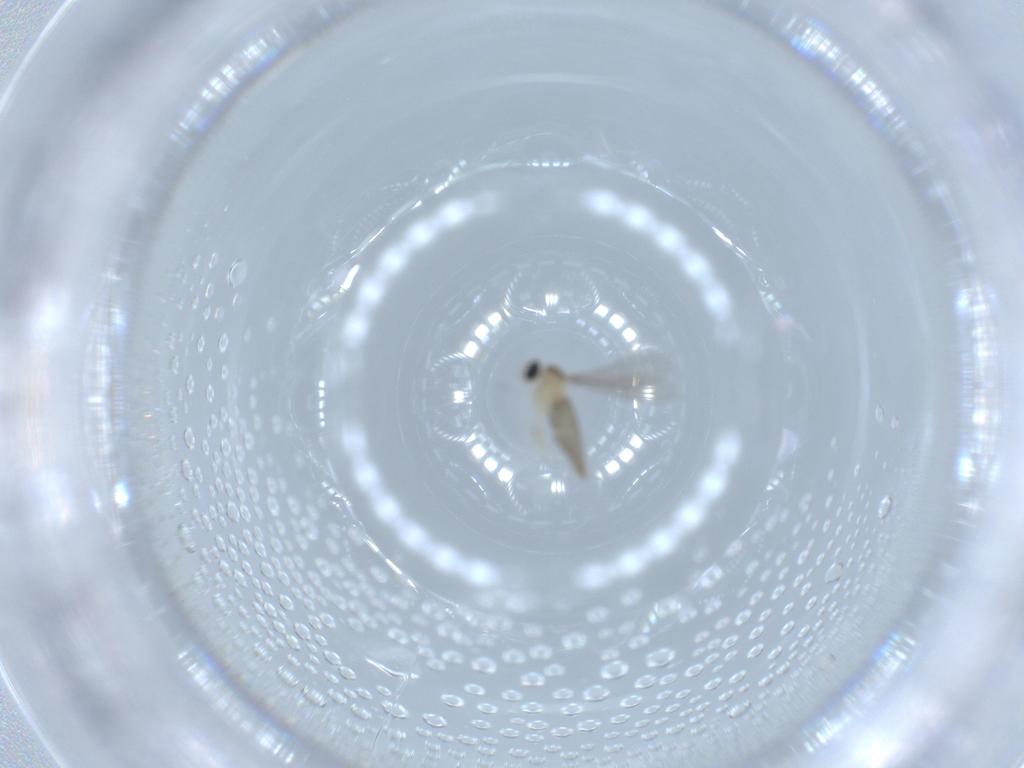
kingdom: Animalia
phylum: Arthropoda
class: Insecta
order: Diptera
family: Cecidomyiidae
